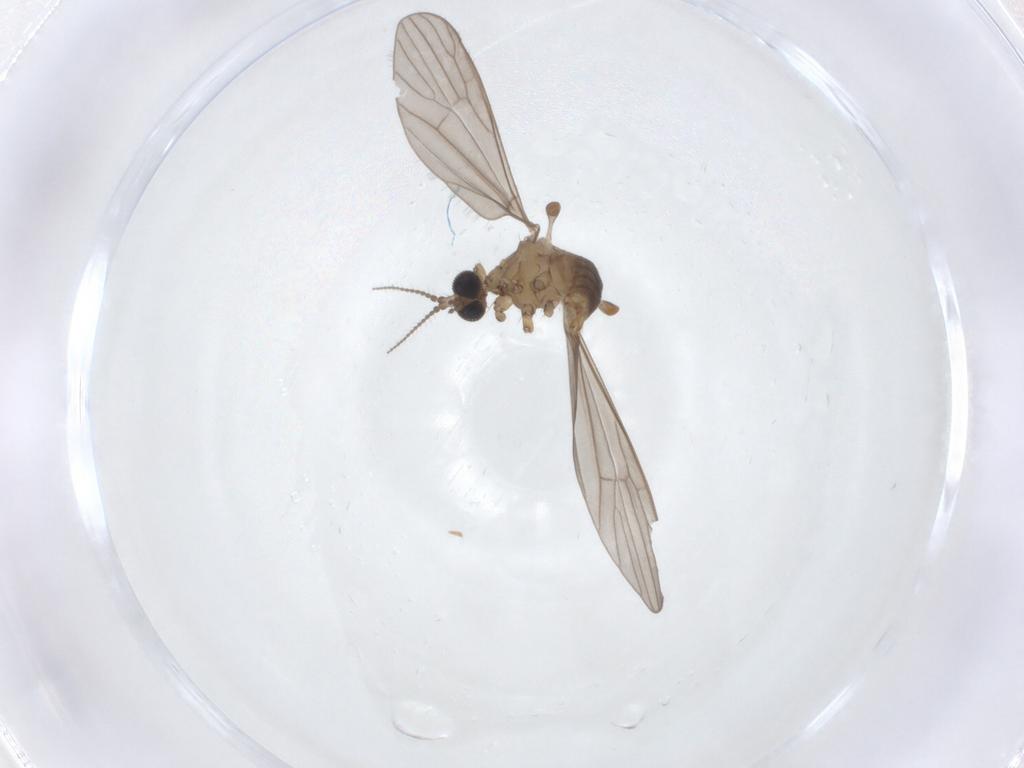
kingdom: Animalia
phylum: Arthropoda
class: Insecta
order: Diptera
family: Limoniidae
